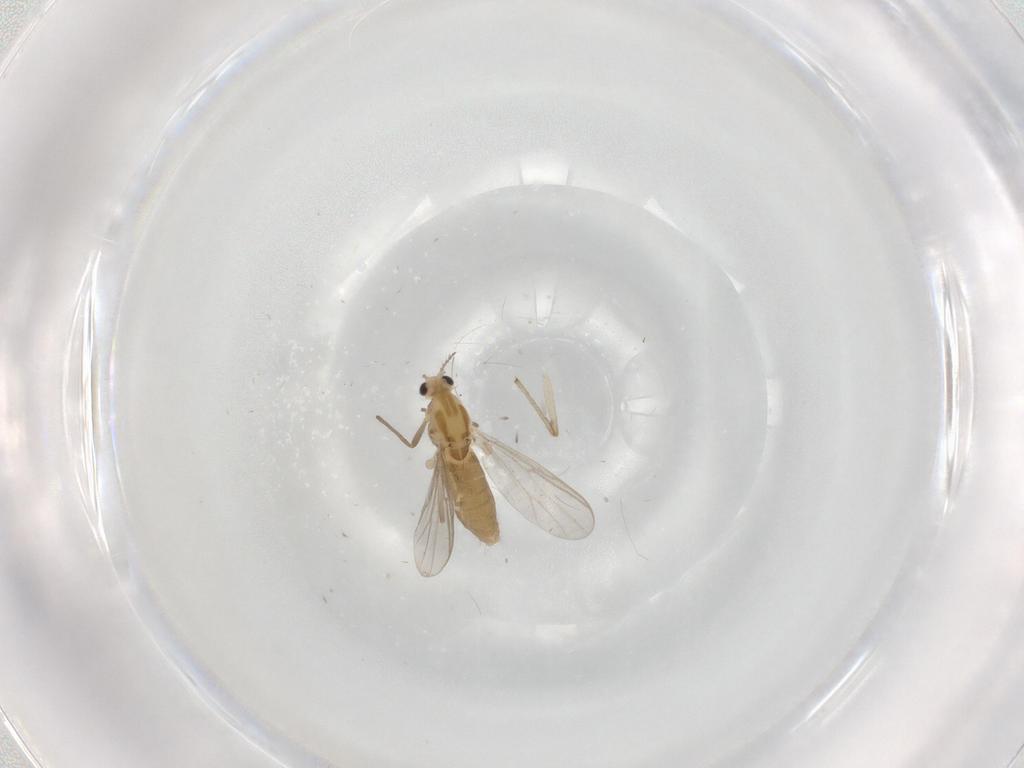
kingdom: Animalia
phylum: Arthropoda
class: Insecta
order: Diptera
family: Chironomidae
